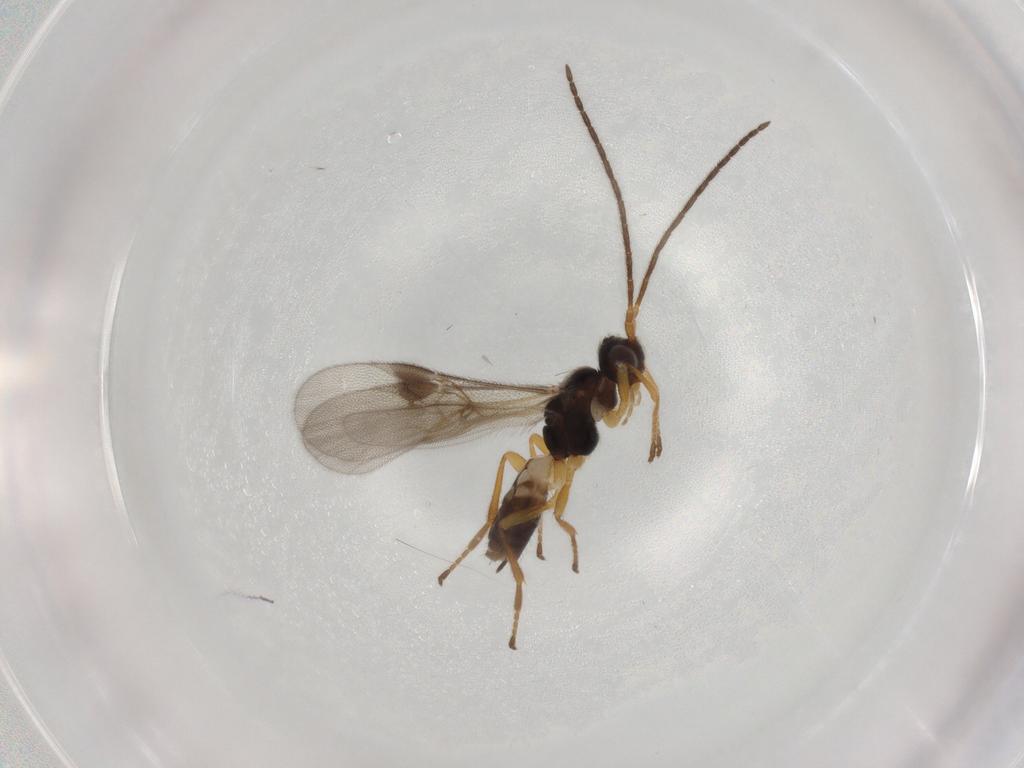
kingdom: Animalia
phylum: Arthropoda
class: Insecta
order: Hymenoptera
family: Braconidae
